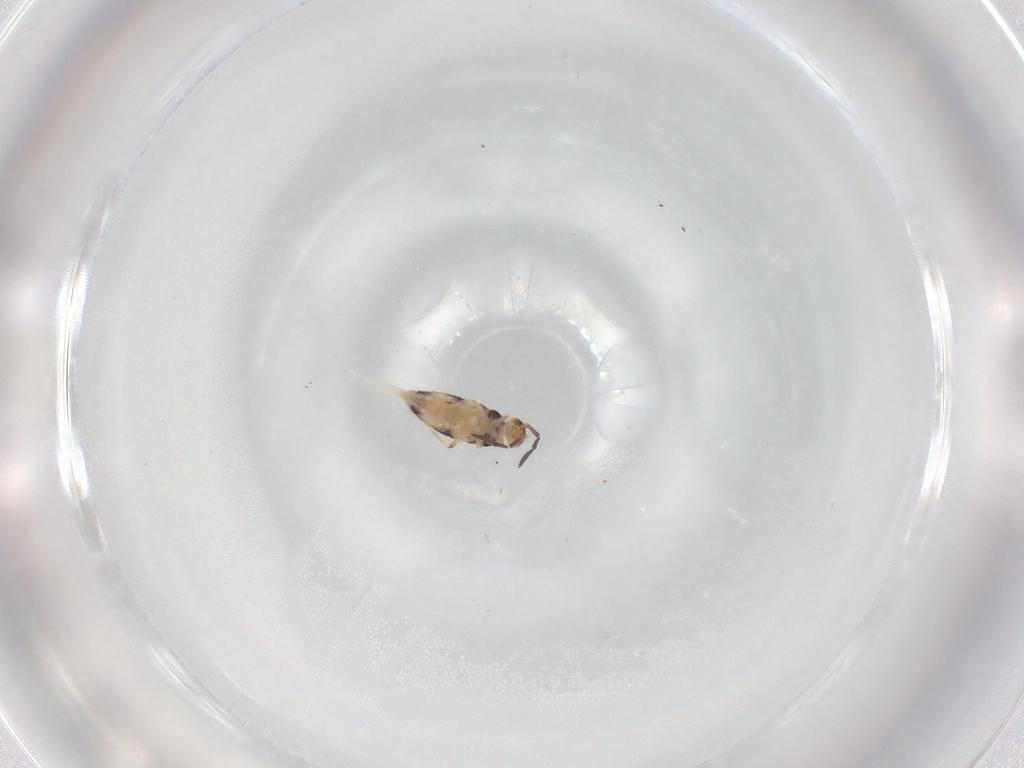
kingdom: Animalia
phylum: Arthropoda
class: Collembola
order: Entomobryomorpha
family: Entomobryidae
